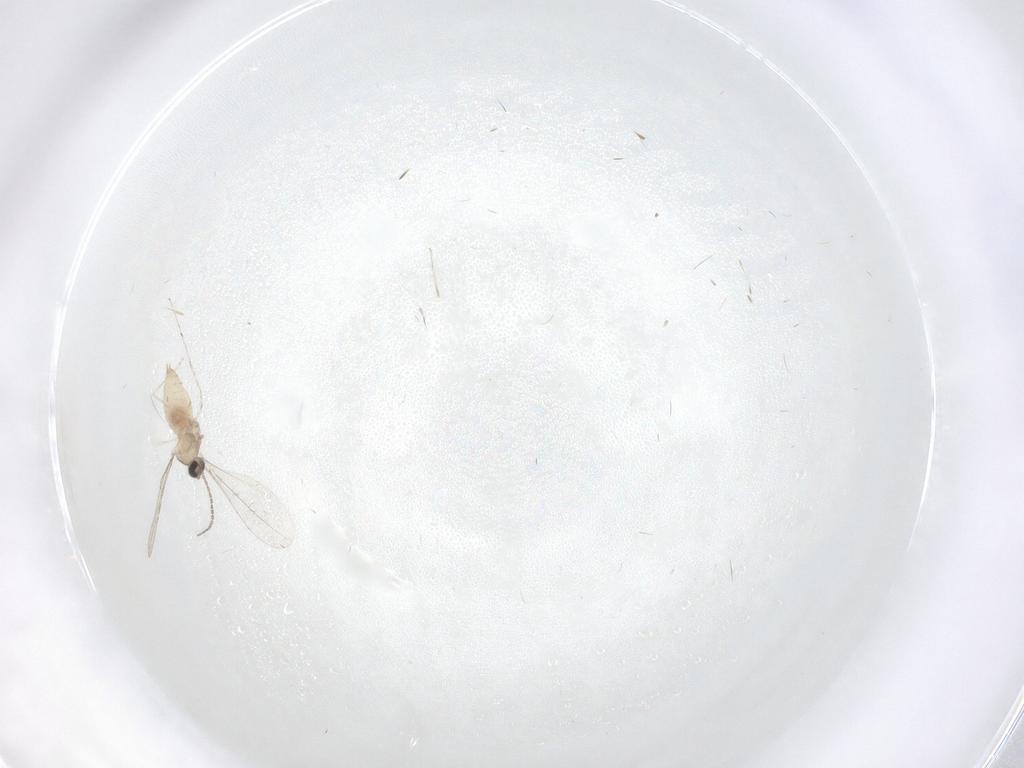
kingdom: Animalia
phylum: Arthropoda
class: Insecta
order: Diptera
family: Cecidomyiidae
